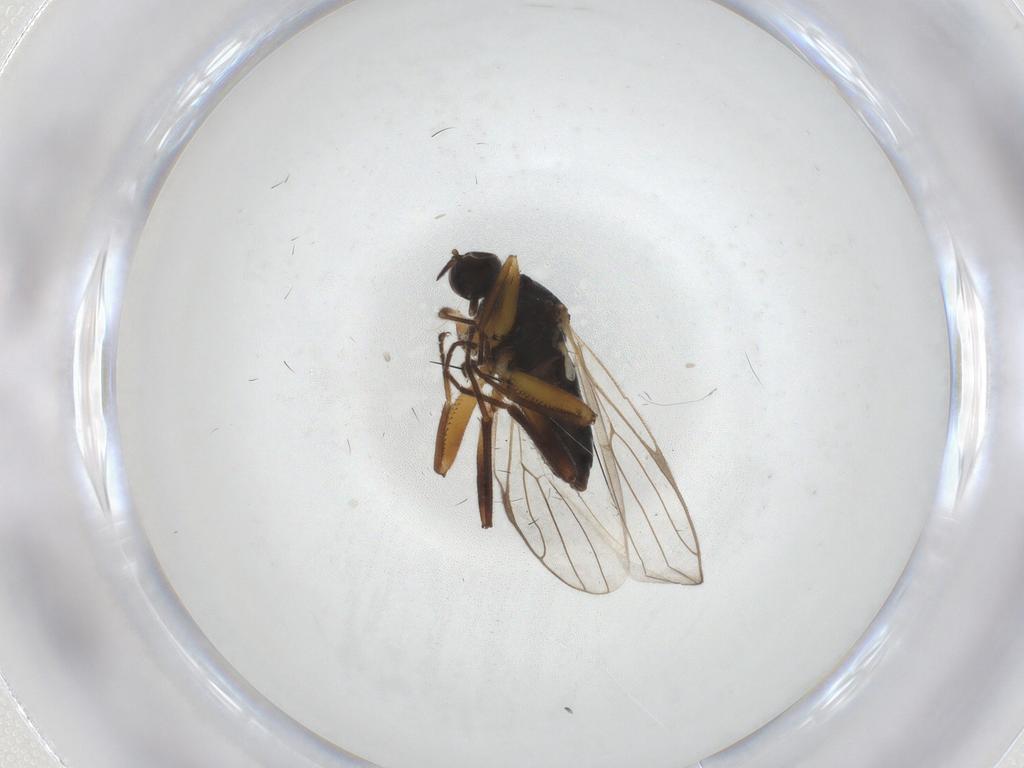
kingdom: Animalia
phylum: Arthropoda
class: Insecta
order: Diptera
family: Hybotidae
